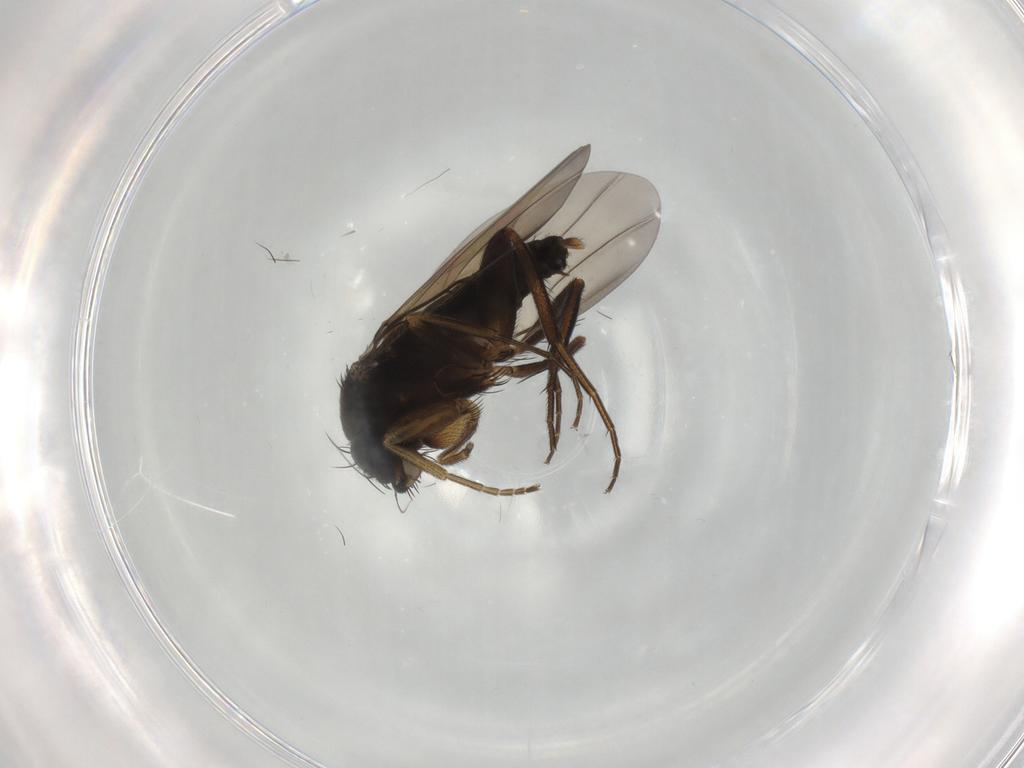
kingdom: Animalia
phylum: Arthropoda
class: Insecta
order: Diptera
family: Phoridae
